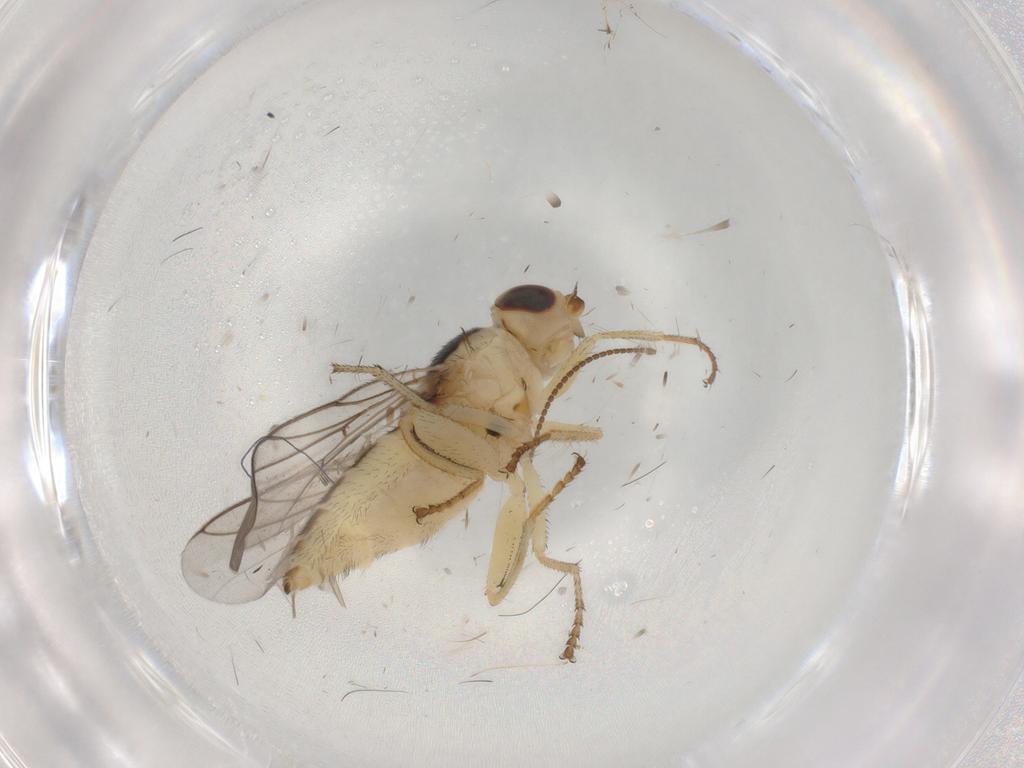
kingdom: Animalia
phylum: Arthropoda
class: Insecta
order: Diptera
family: Chloropidae
